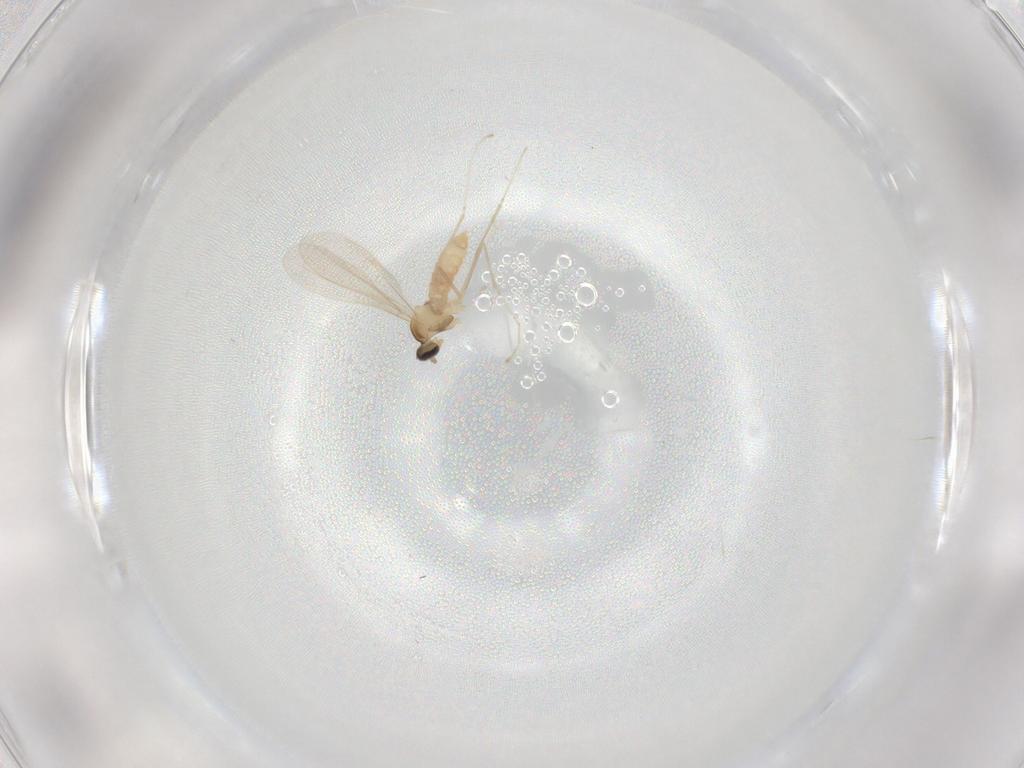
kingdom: Animalia
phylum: Arthropoda
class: Insecta
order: Diptera
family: Cecidomyiidae
